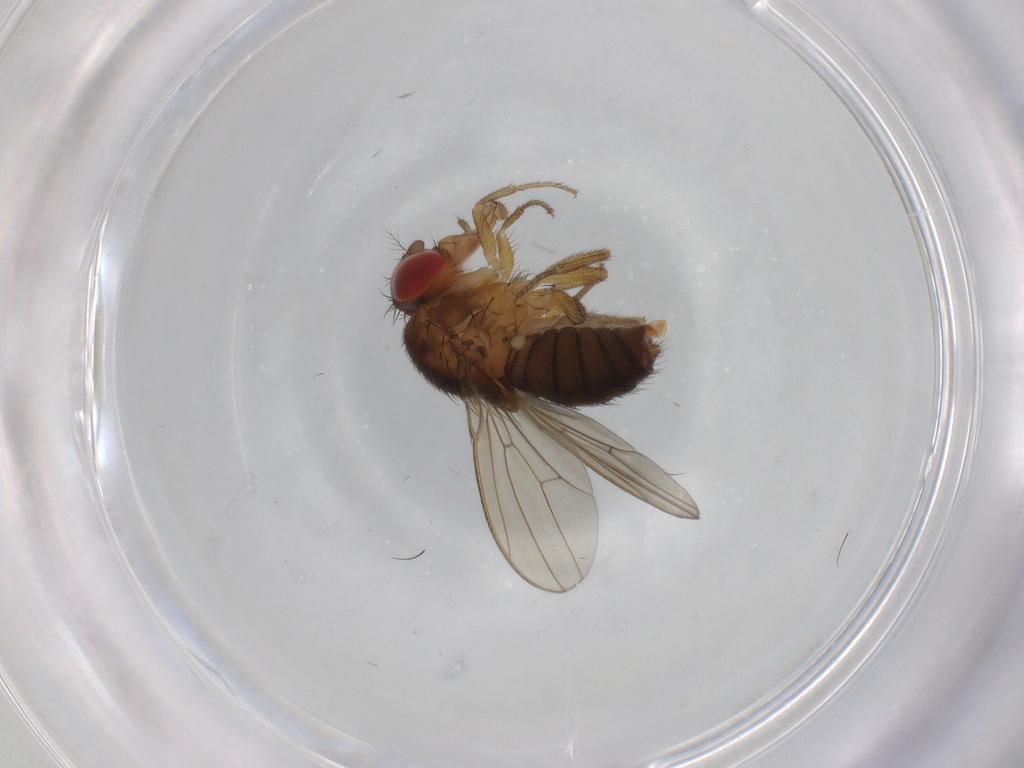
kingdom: Animalia
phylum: Arthropoda
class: Insecta
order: Diptera
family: Drosophilidae
